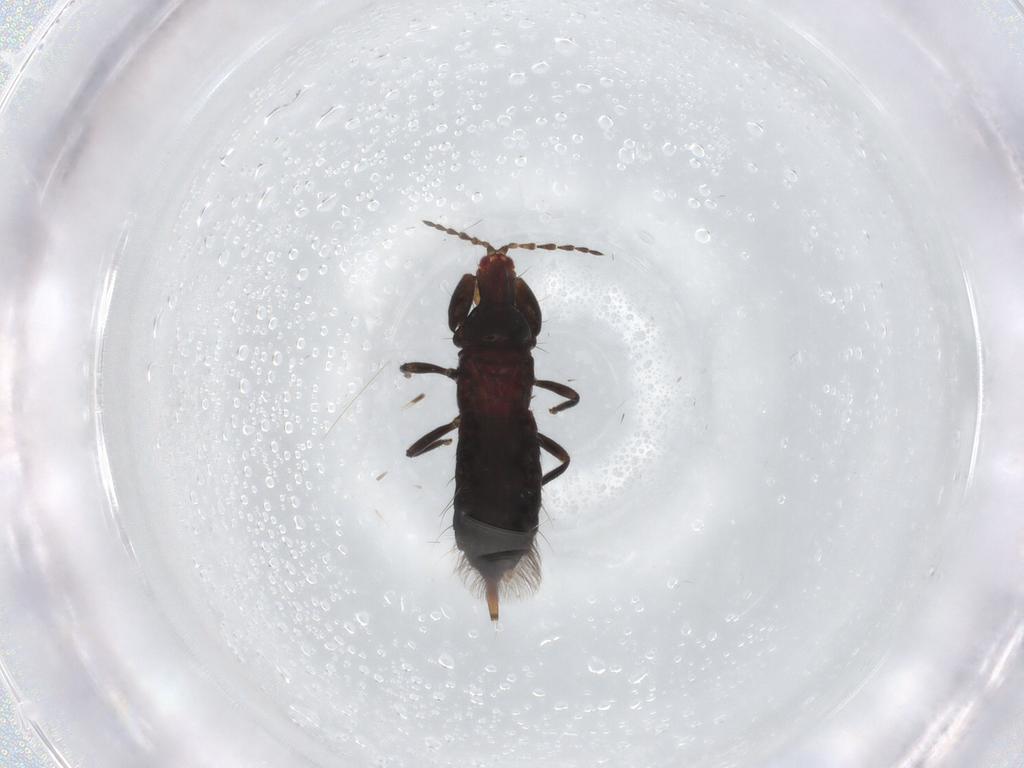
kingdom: Animalia
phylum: Arthropoda
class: Insecta
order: Thysanoptera
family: Phlaeothripidae
